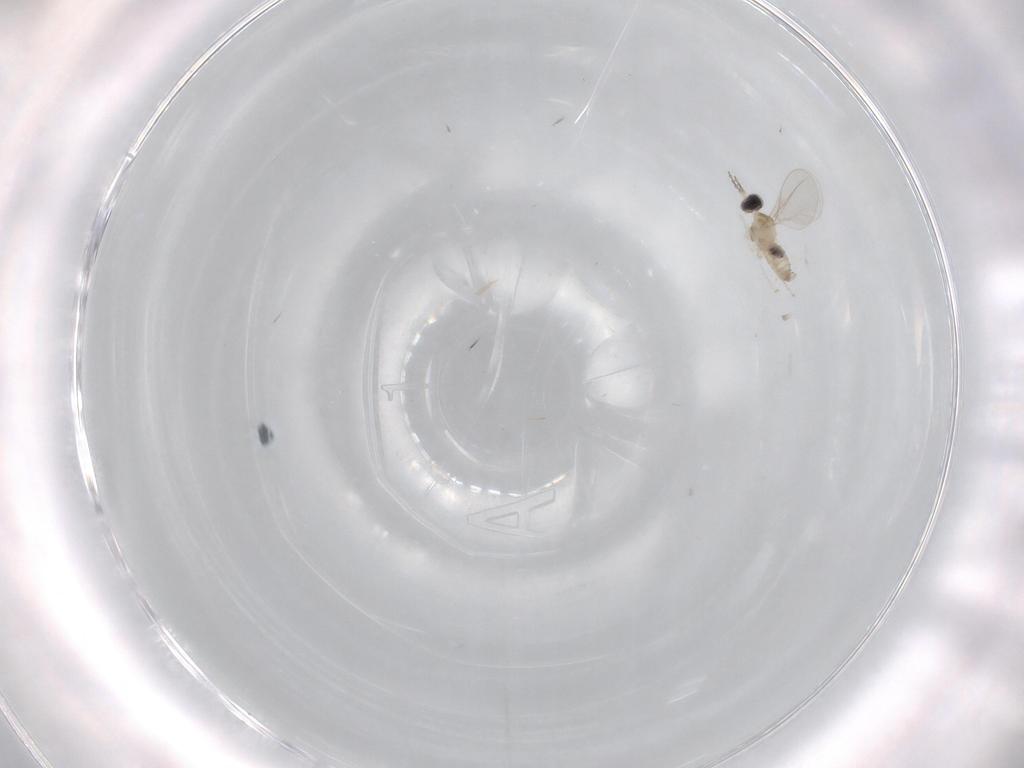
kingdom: Animalia
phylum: Arthropoda
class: Insecta
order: Diptera
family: Cecidomyiidae
